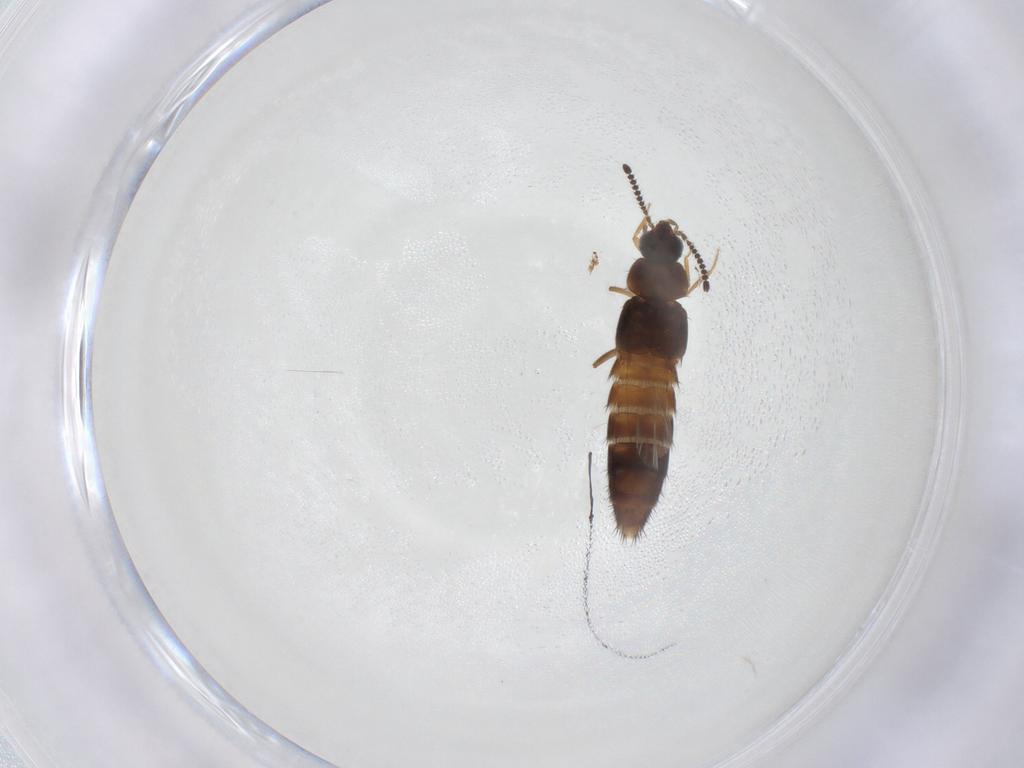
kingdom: Animalia
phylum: Arthropoda
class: Insecta
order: Coleoptera
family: Staphylinidae
